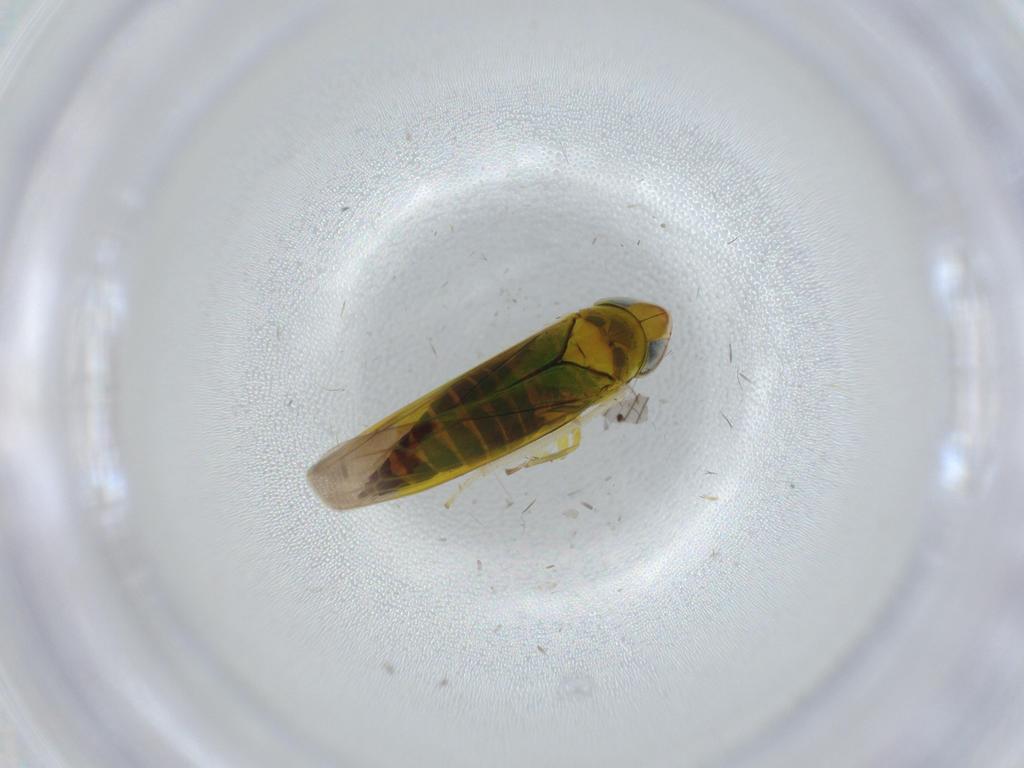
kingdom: Animalia
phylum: Arthropoda
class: Insecta
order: Hemiptera
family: Cicadellidae
